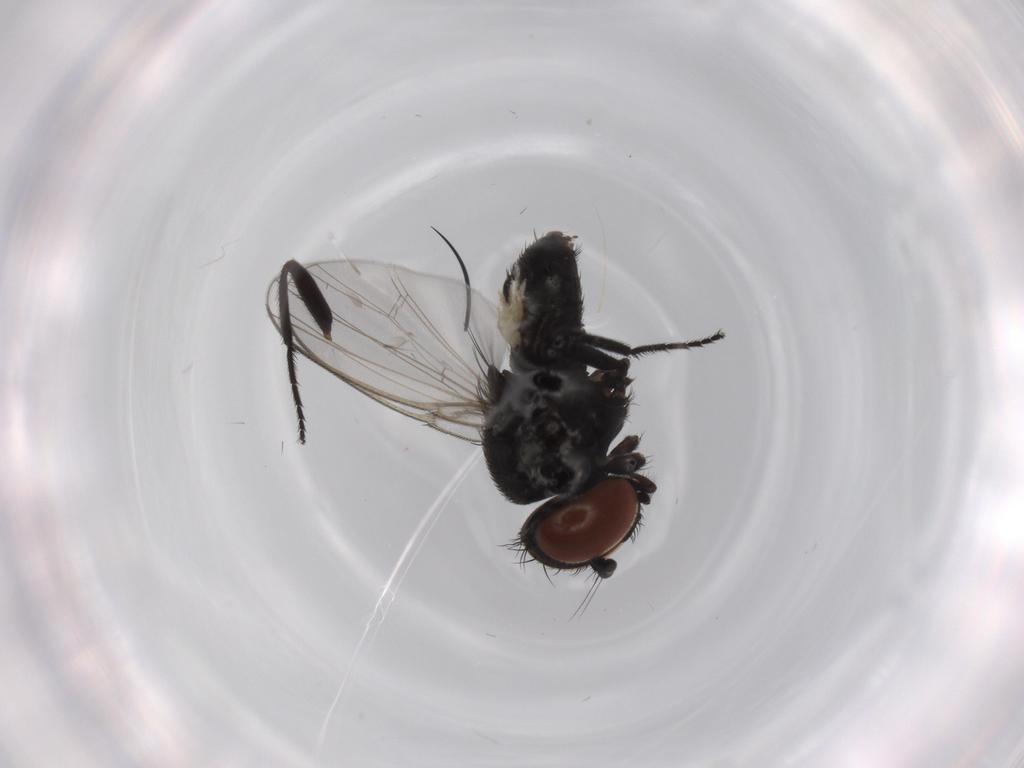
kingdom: Animalia
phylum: Arthropoda
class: Insecta
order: Diptera
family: Milichiidae
